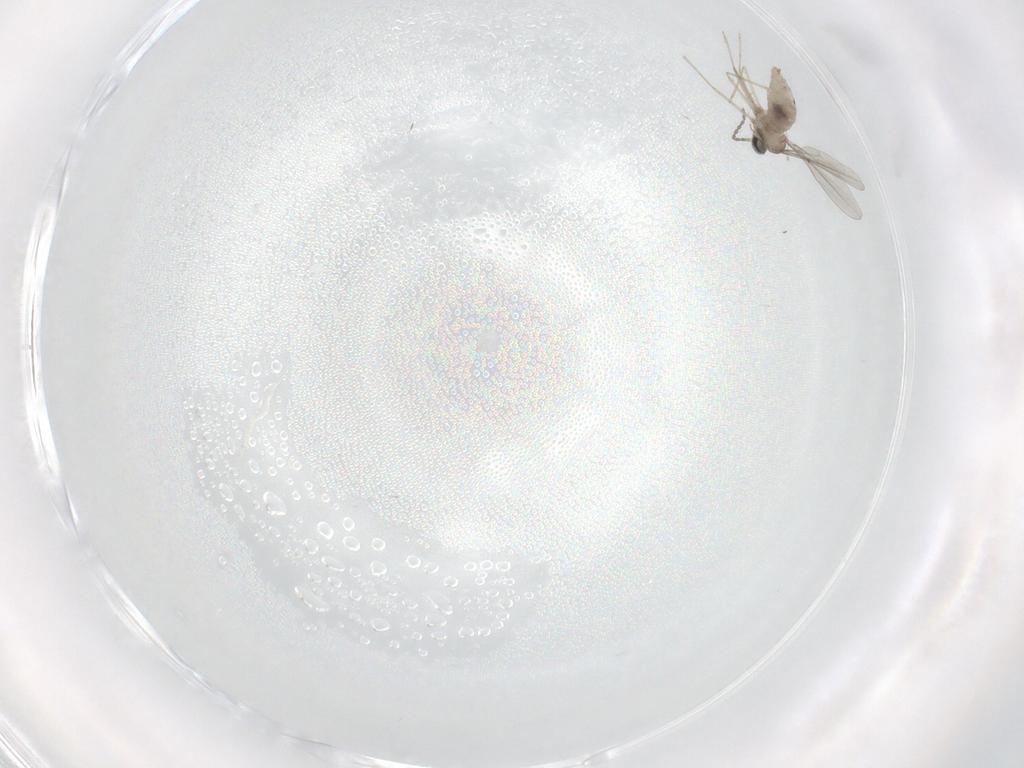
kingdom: Animalia
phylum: Arthropoda
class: Insecta
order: Diptera
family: Cecidomyiidae
